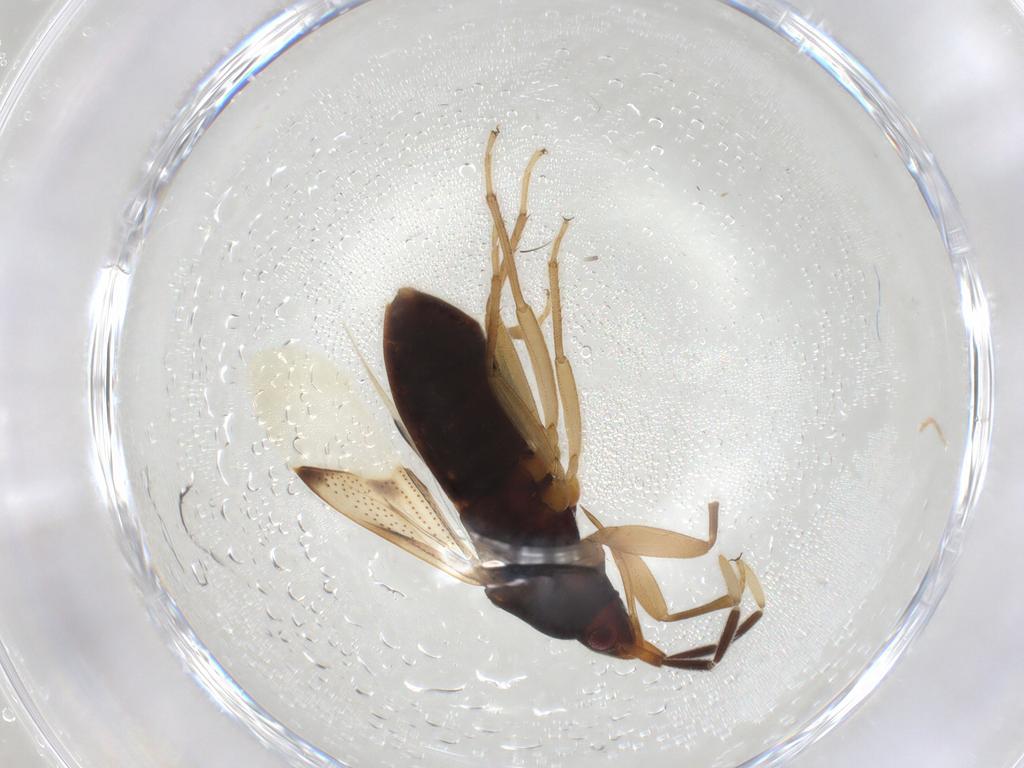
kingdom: Animalia
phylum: Arthropoda
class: Insecta
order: Hemiptera
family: Rhyparochromidae
